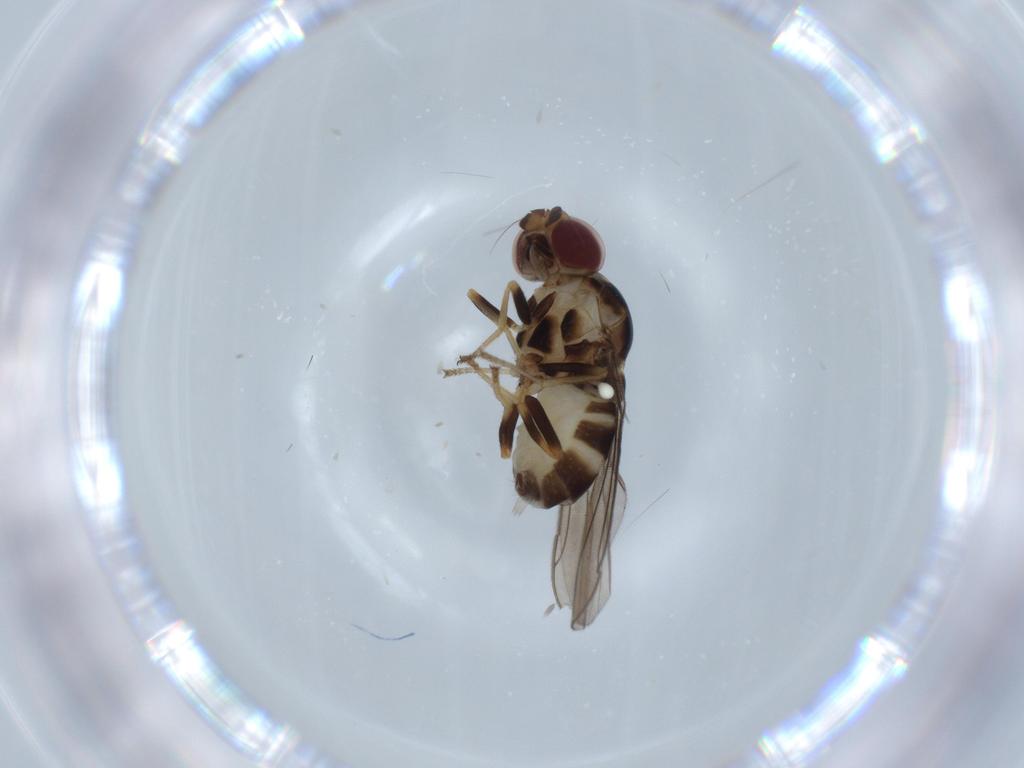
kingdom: Animalia
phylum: Arthropoda
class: Insecta
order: Diptera
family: Chloropidae
